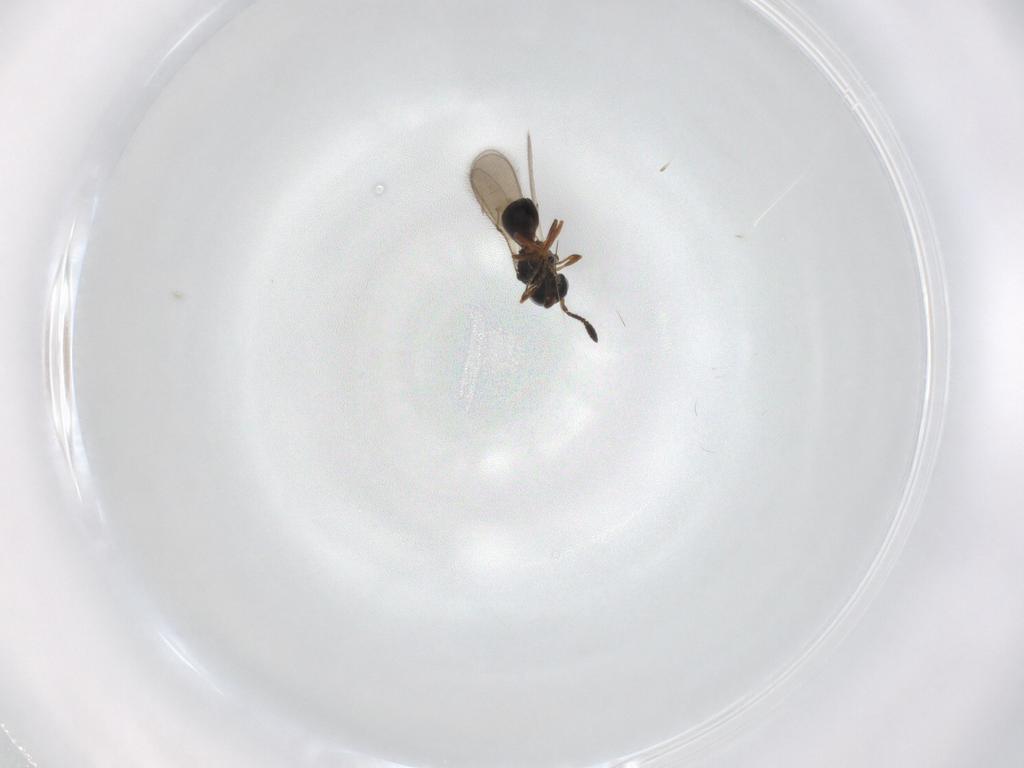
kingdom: Animalia
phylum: Arthropoda
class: Insecta
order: Hymenoptera
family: Scelionidae
